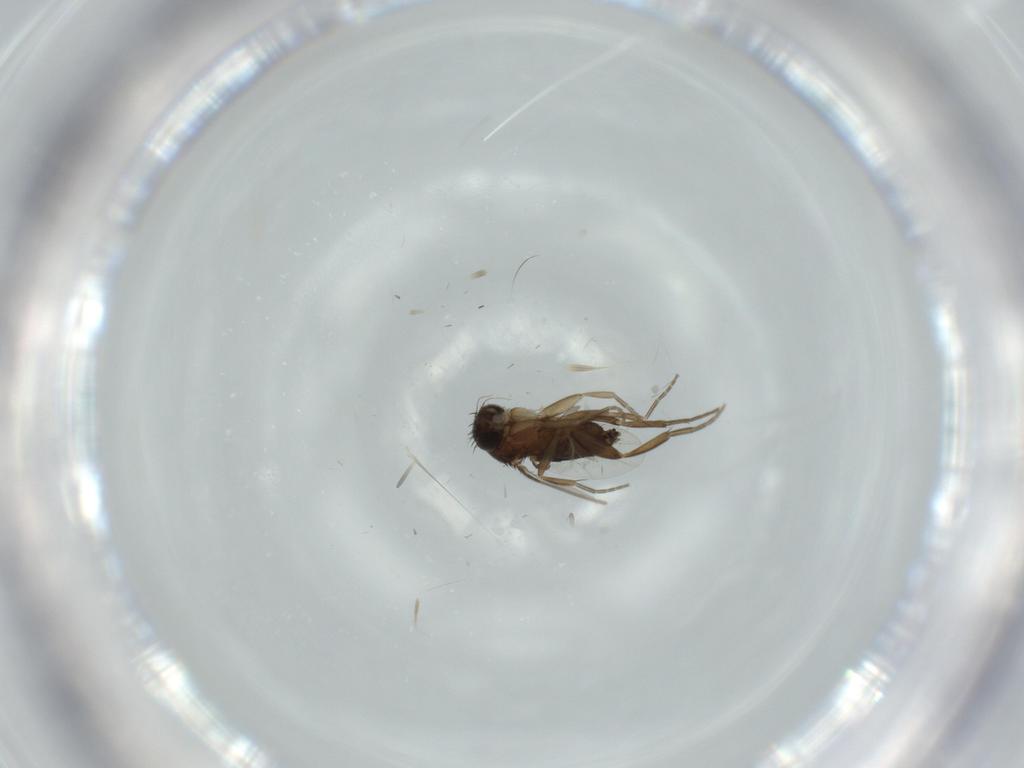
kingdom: Animalia
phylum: Arthropoda
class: Insecta
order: Diptera
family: Phoridae
